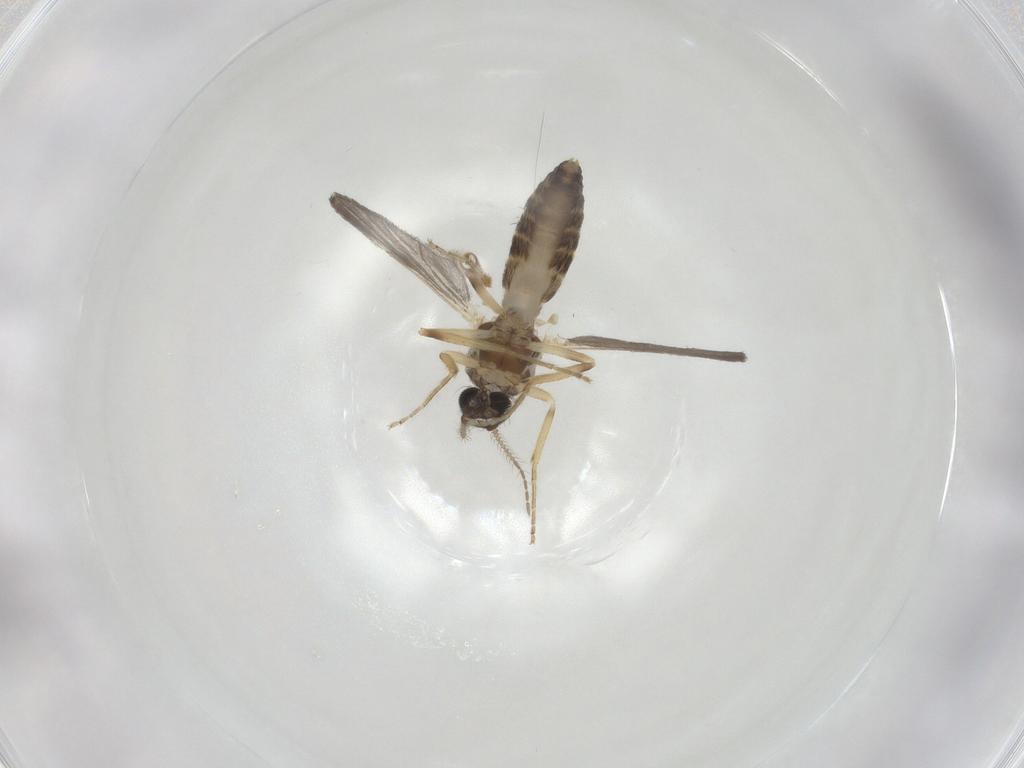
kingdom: Animalia
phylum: Arthropoda
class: Insecta
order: Diptera
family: Ceratopogonidae
